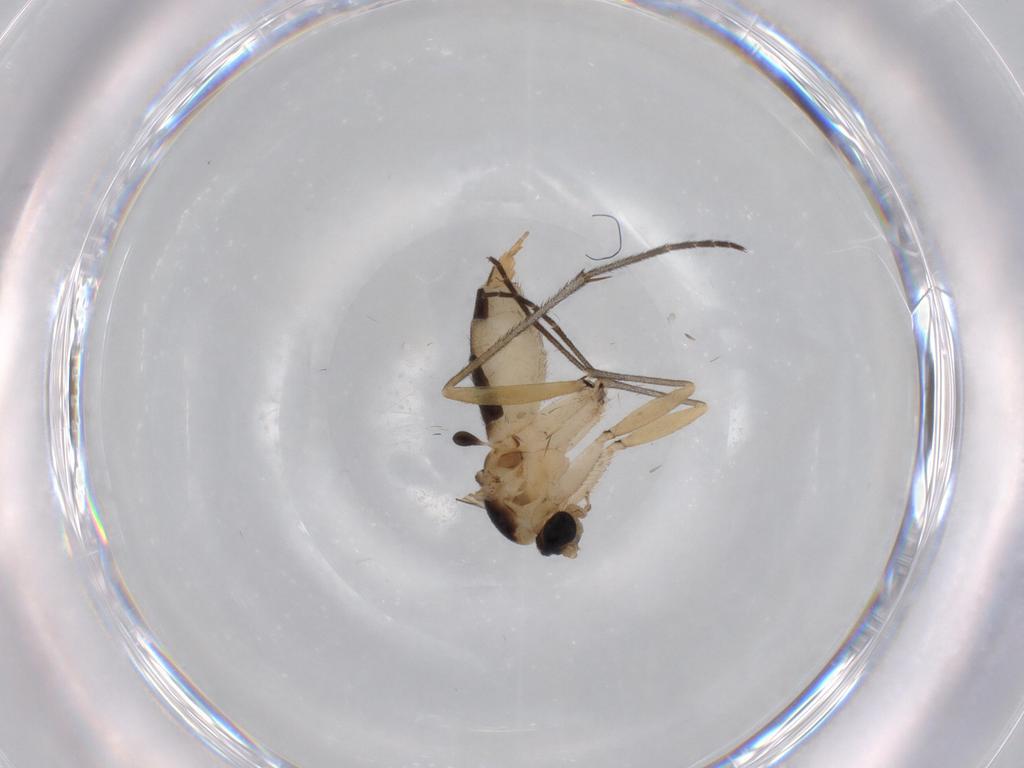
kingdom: Animalia
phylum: Arthropoda
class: Insecta
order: Diptera
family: Sciaridae
